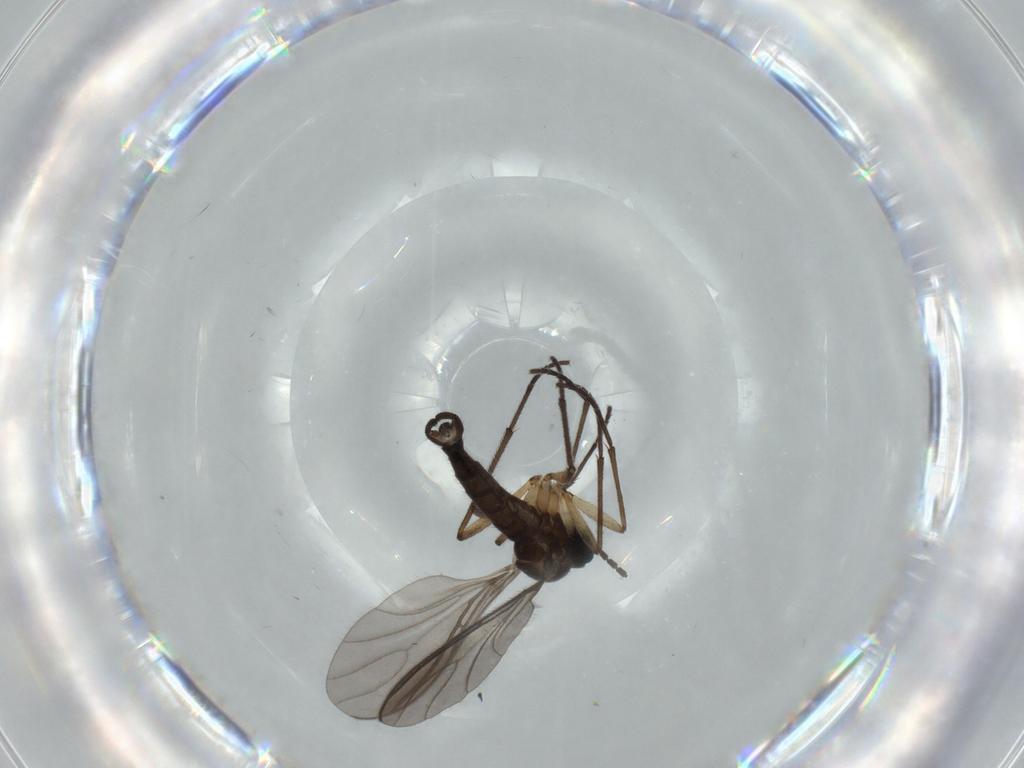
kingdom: Animalia
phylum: Arthropoda
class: Insecta
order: Diptera
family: Sciaridae
